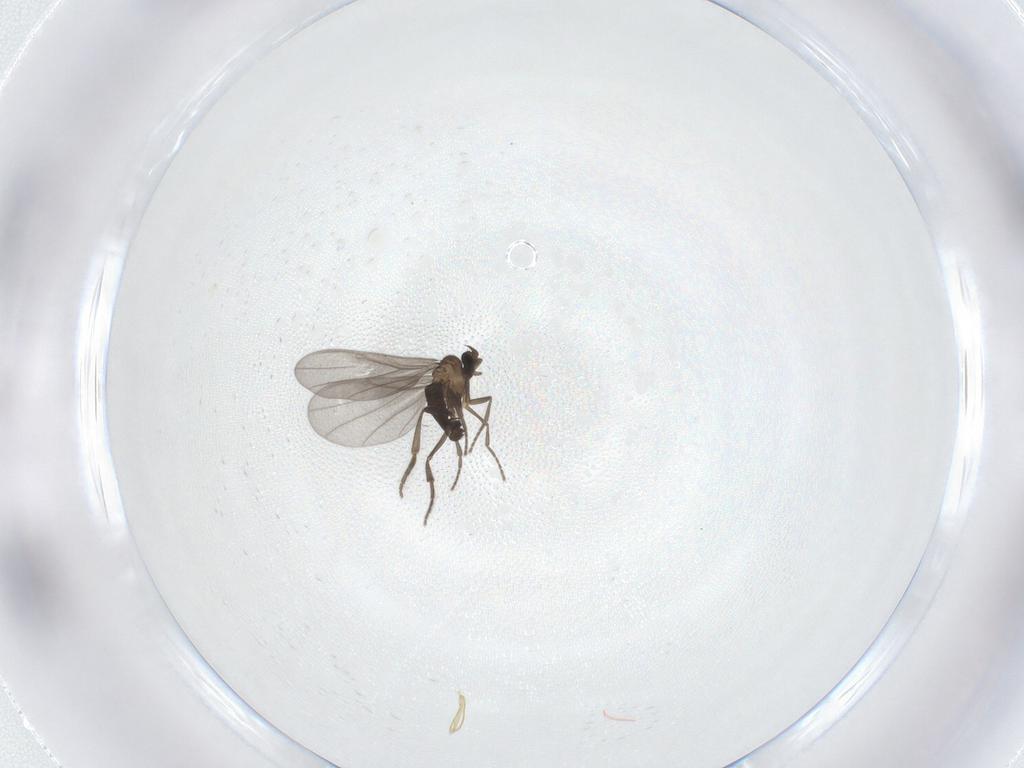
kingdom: Animalia
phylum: Arthropoda
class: Insecta
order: Diptera
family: Phoridae
